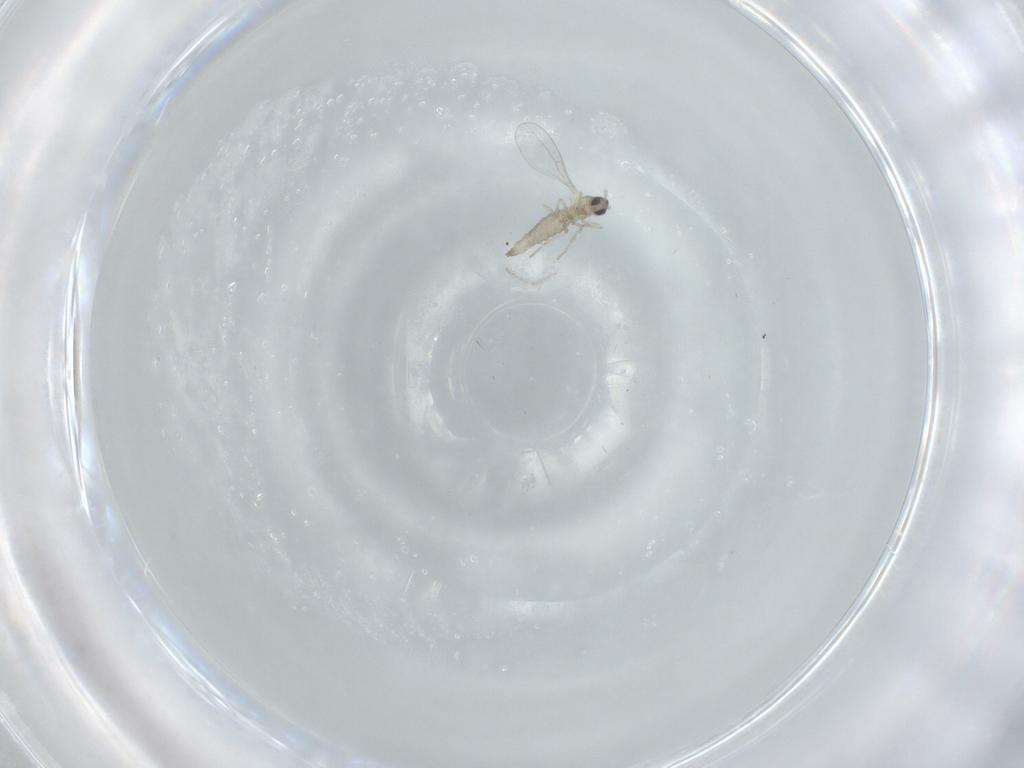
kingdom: Animalia
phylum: Arthropoda
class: Insecta
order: Diptera
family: Cecidomyiidae
